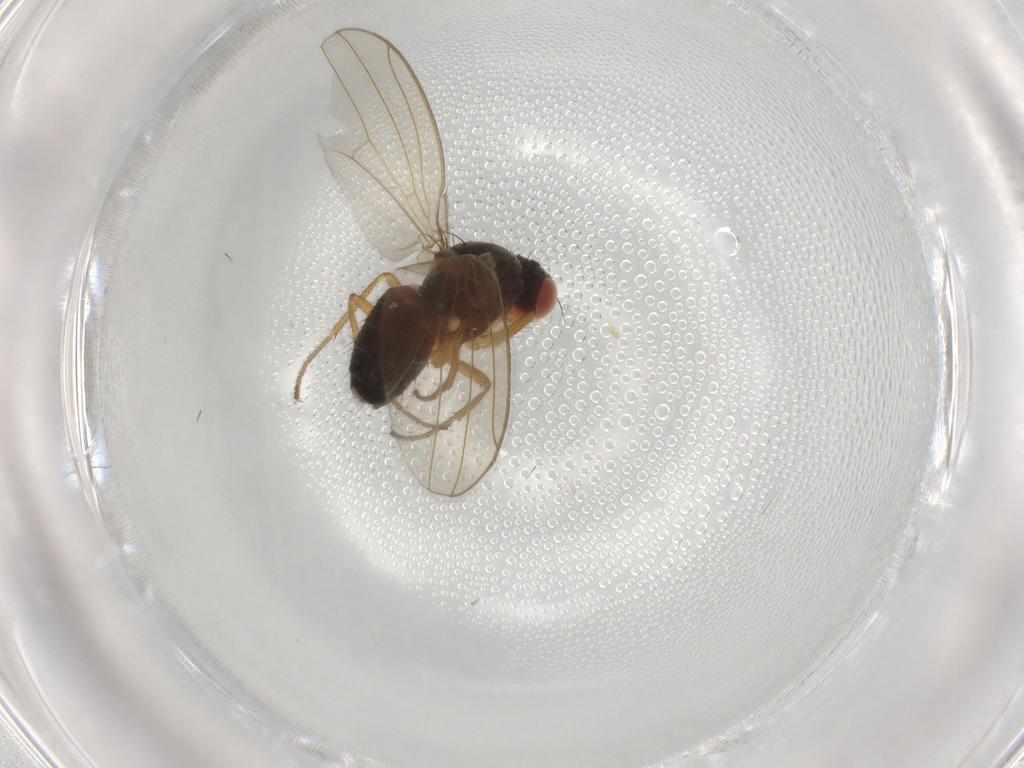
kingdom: Animalia
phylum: Arthropoda
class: Insecta
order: Diptera
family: Drosophilidae
